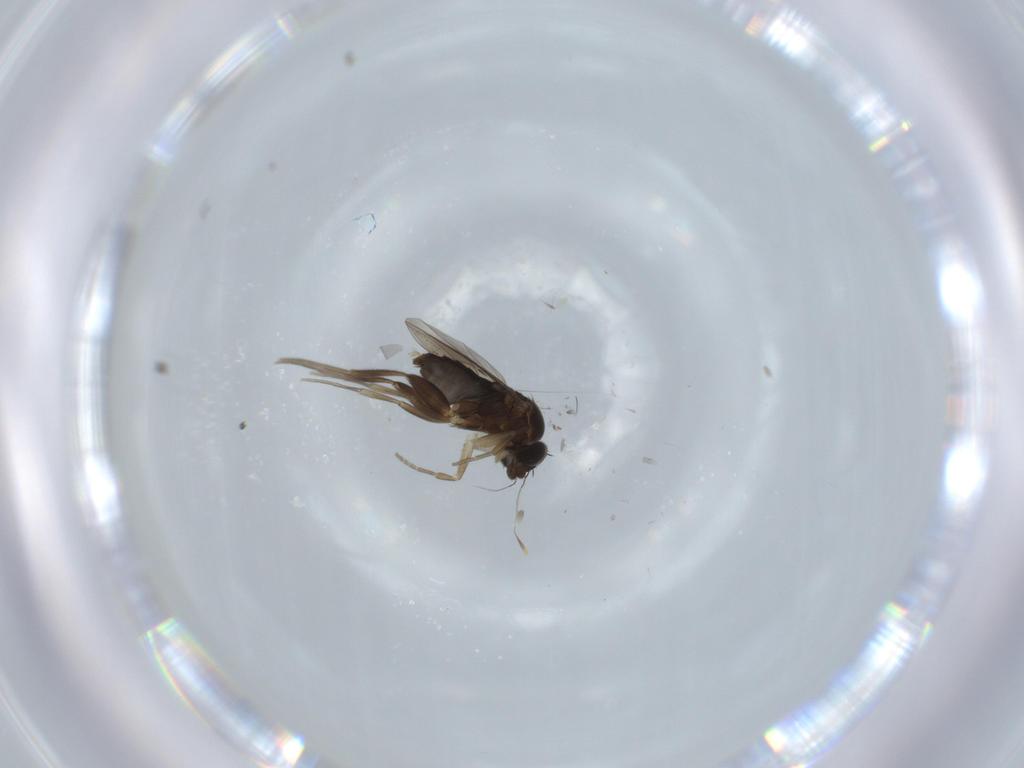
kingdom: Animalia
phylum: Arthropoda
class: Insecta
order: Diptera
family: Phoridae
